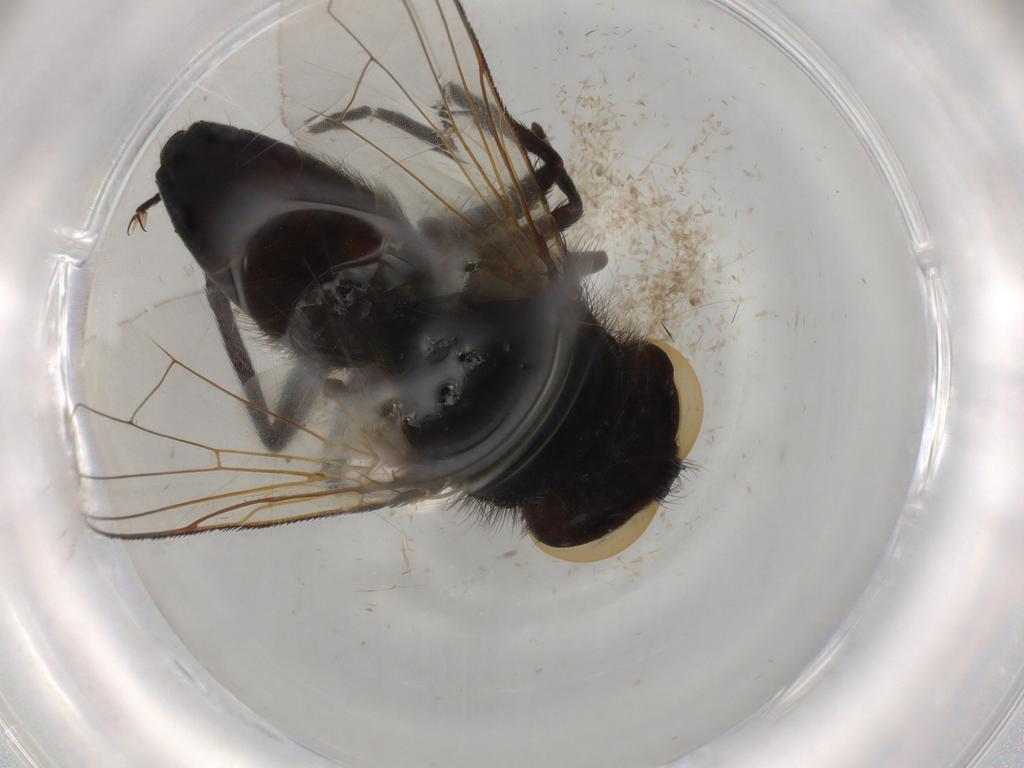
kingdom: Animalia
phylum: Arthropoda
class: Insecta
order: Diptera
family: Tachinidae
